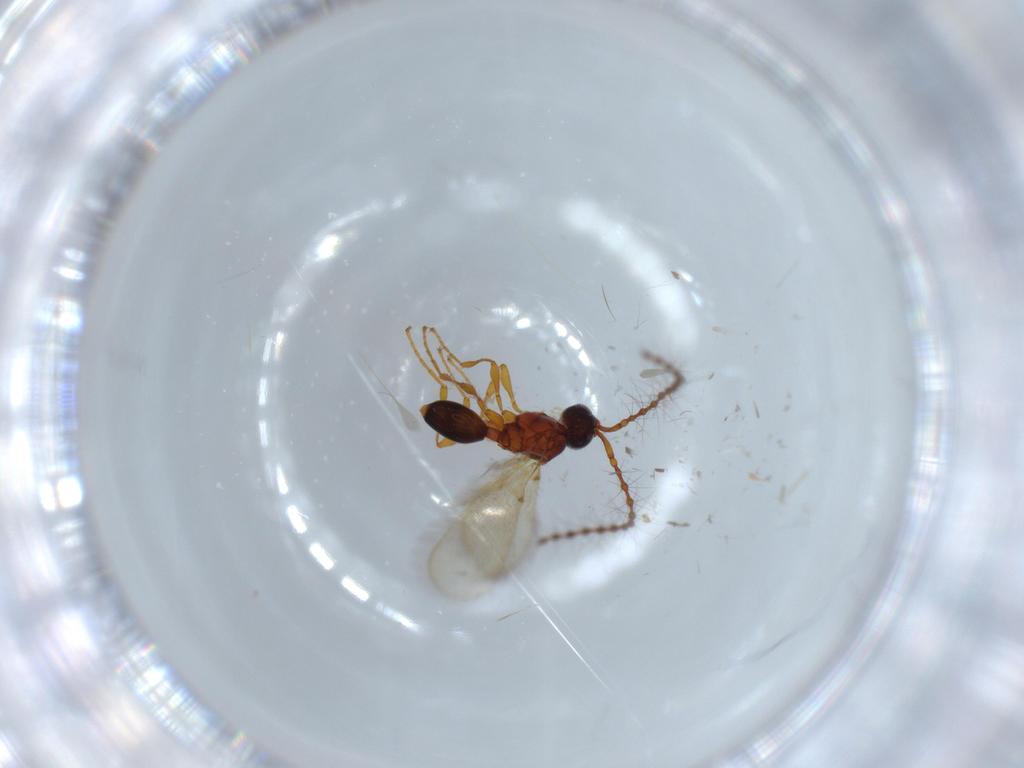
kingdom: Animalia
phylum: Arthropoda
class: Insecta
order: Hymenoptera
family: Diapriidae
